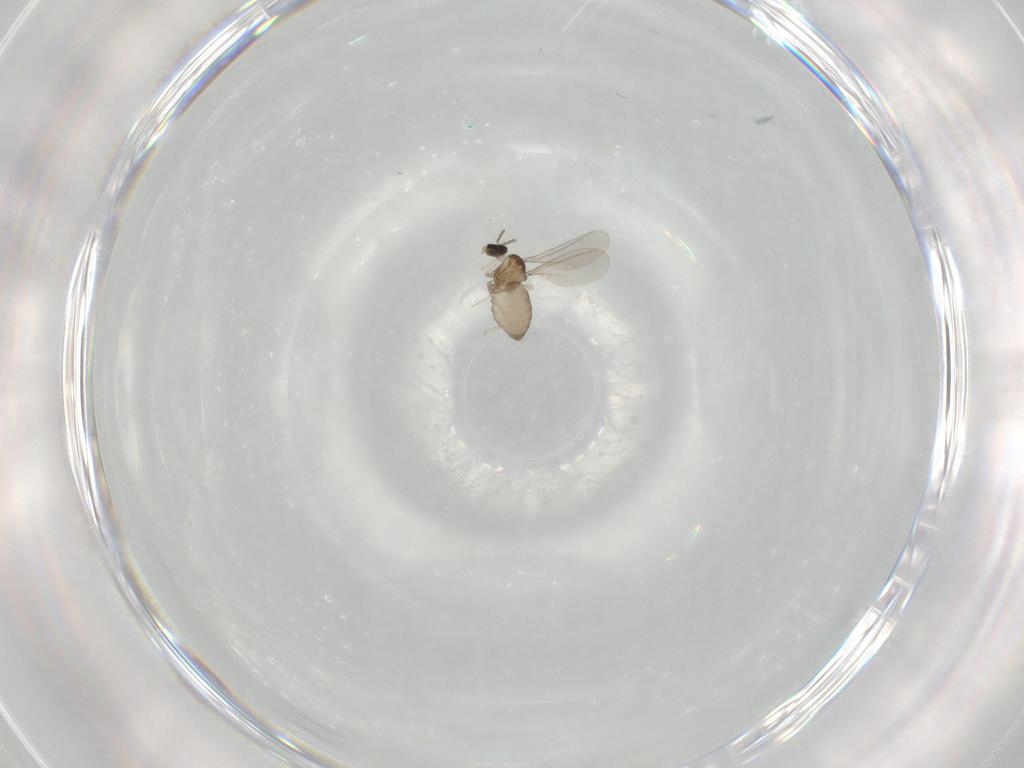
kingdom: Animalia
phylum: Arthropoda
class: Insecta
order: Diptera
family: Cecidomyiidae
